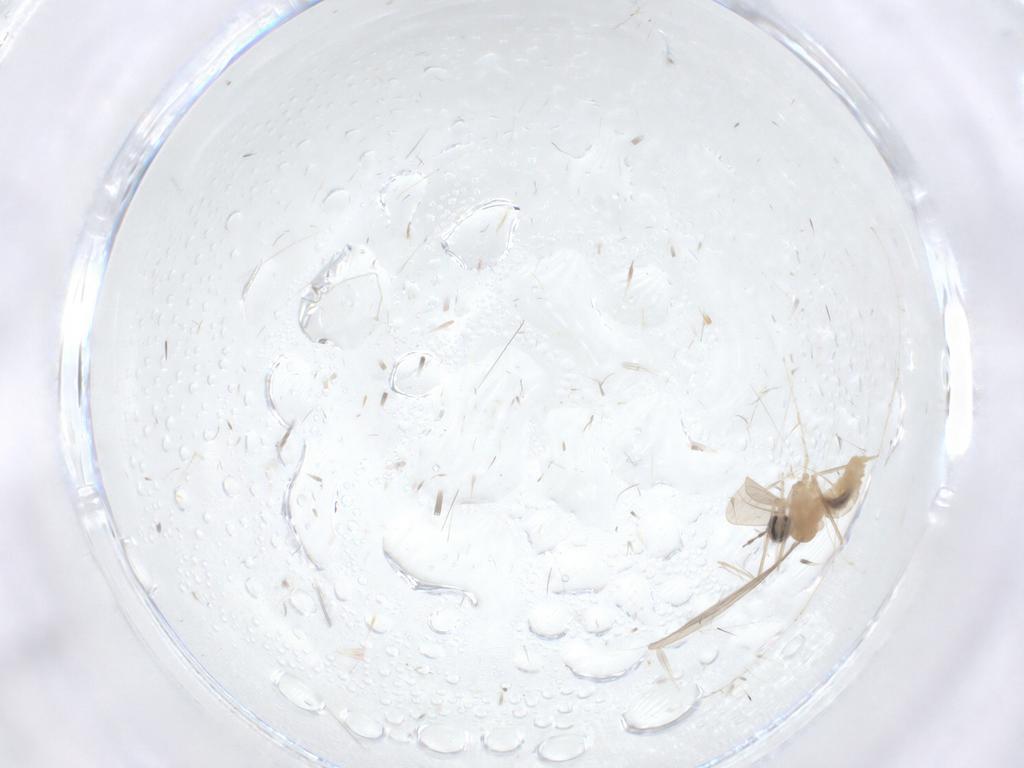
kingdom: Animalia
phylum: Arthropoda
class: Insecta
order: Diptera
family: Cecidomyiidae
